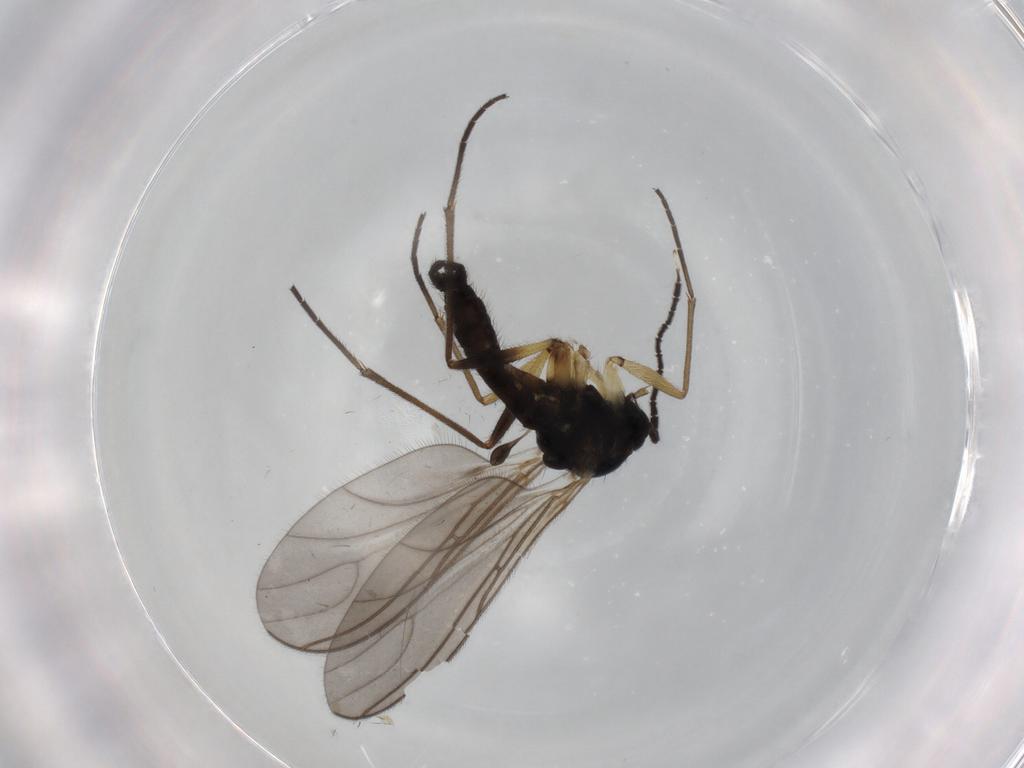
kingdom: Animalia
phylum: Arthropoda
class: Insecta
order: Diptera
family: Sciaridae
